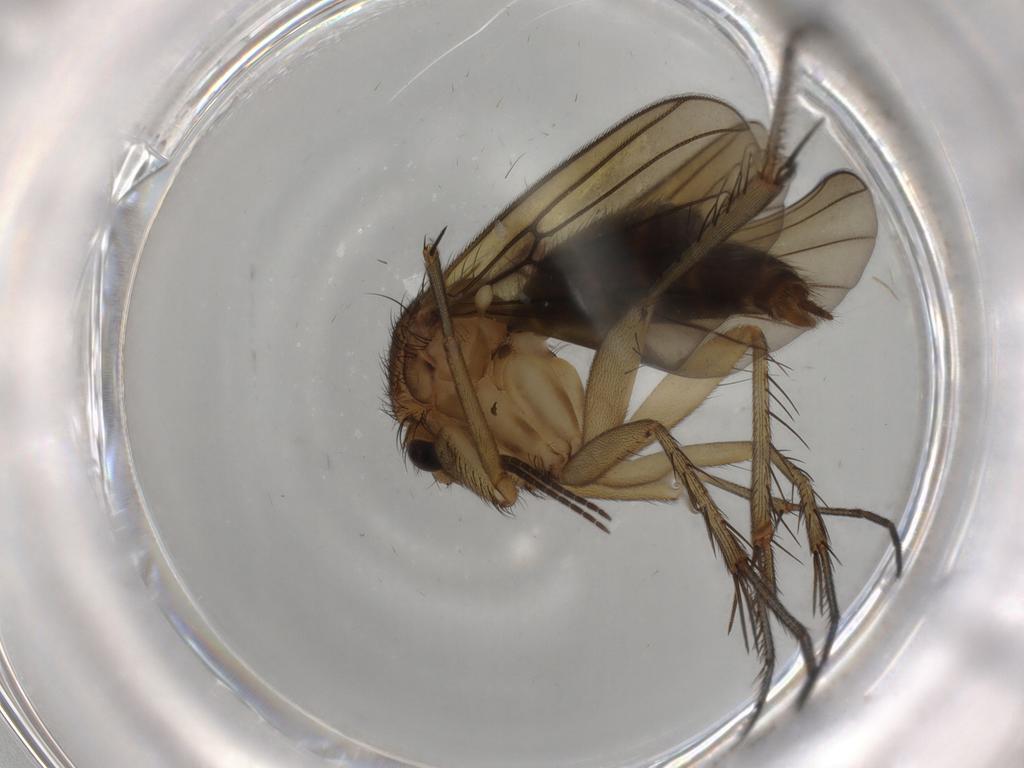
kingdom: Animalia
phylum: Arthropoda
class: Insecta
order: Diptera
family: Mycetophilidae
